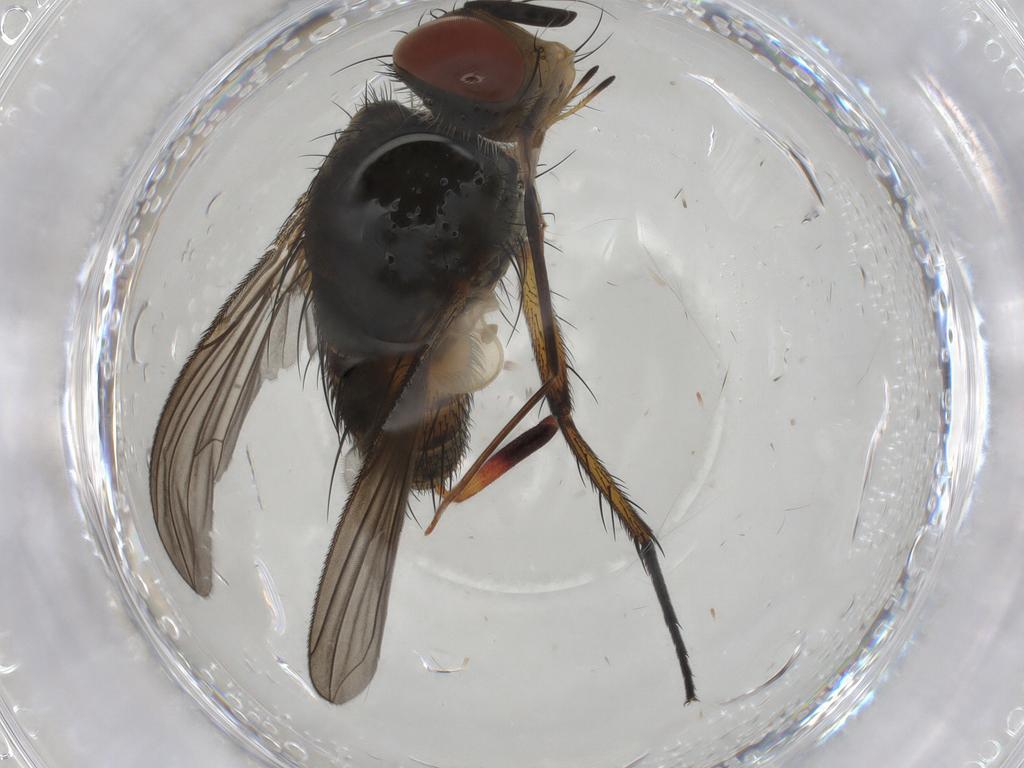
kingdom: Animalia
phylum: Arthropoda
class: Insecta
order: Diptera
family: Tachinidae
